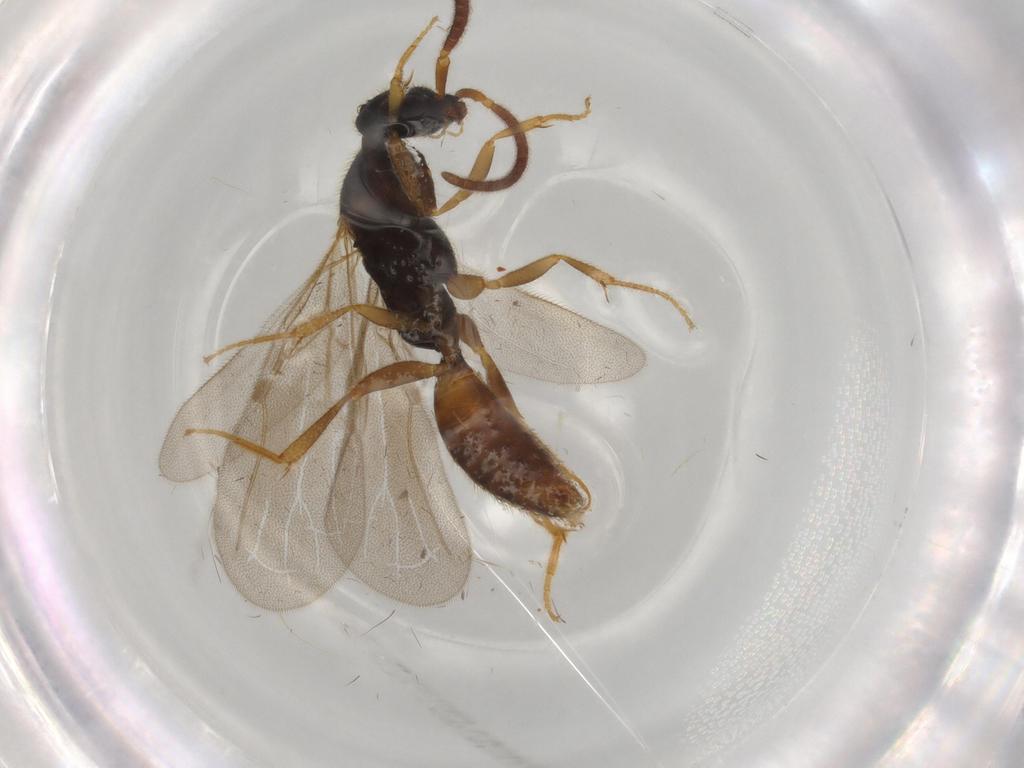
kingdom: Animalia
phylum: Arthropoda
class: Insecta
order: Hymenoptera
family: Bethylidae
